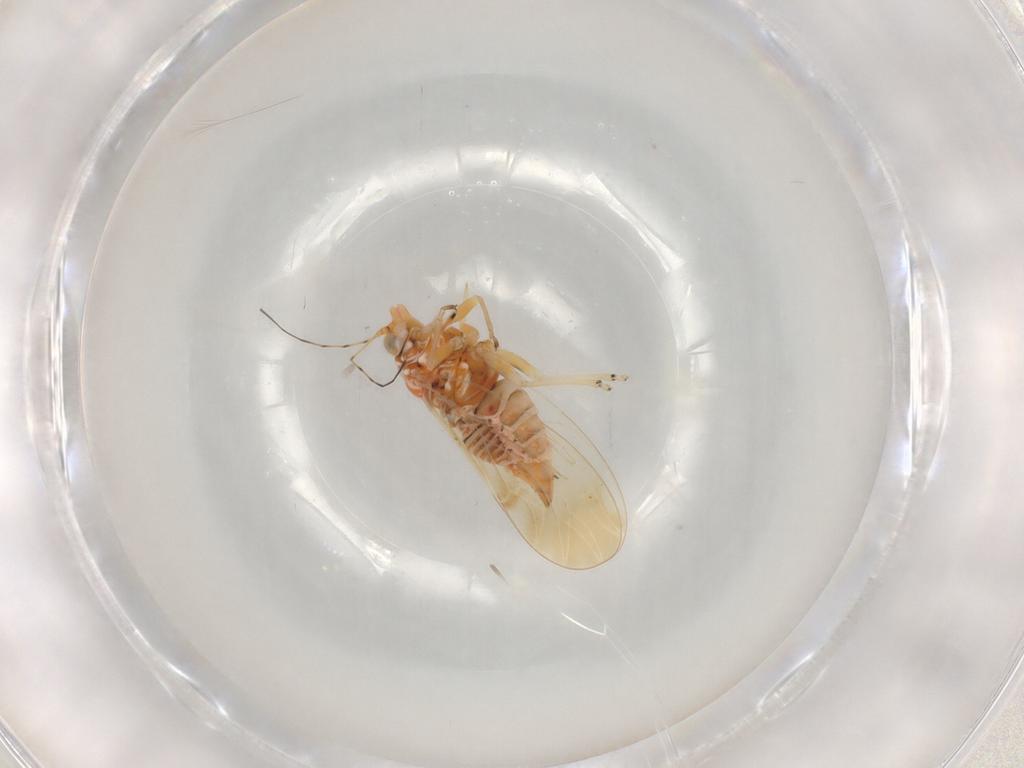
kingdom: Animalia
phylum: Arthropoda
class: Insecta
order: Hemiptera
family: Psyllidae
